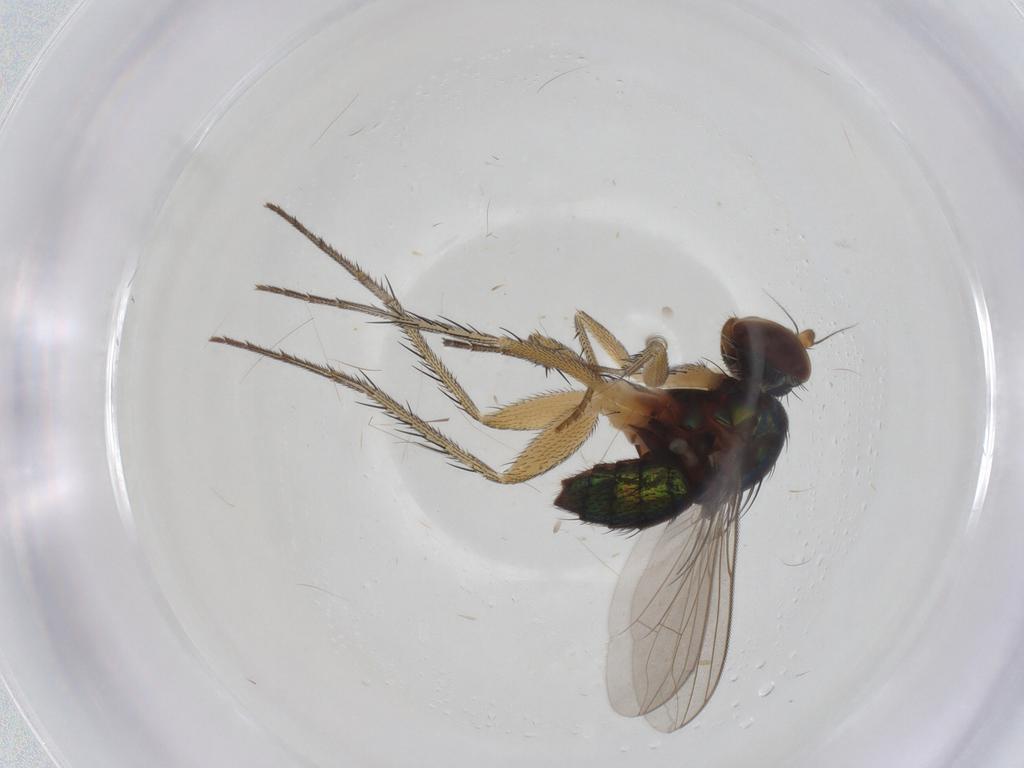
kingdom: Animalia
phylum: Arthropoda
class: Insecta
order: Diptera
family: Dolichopodidae
